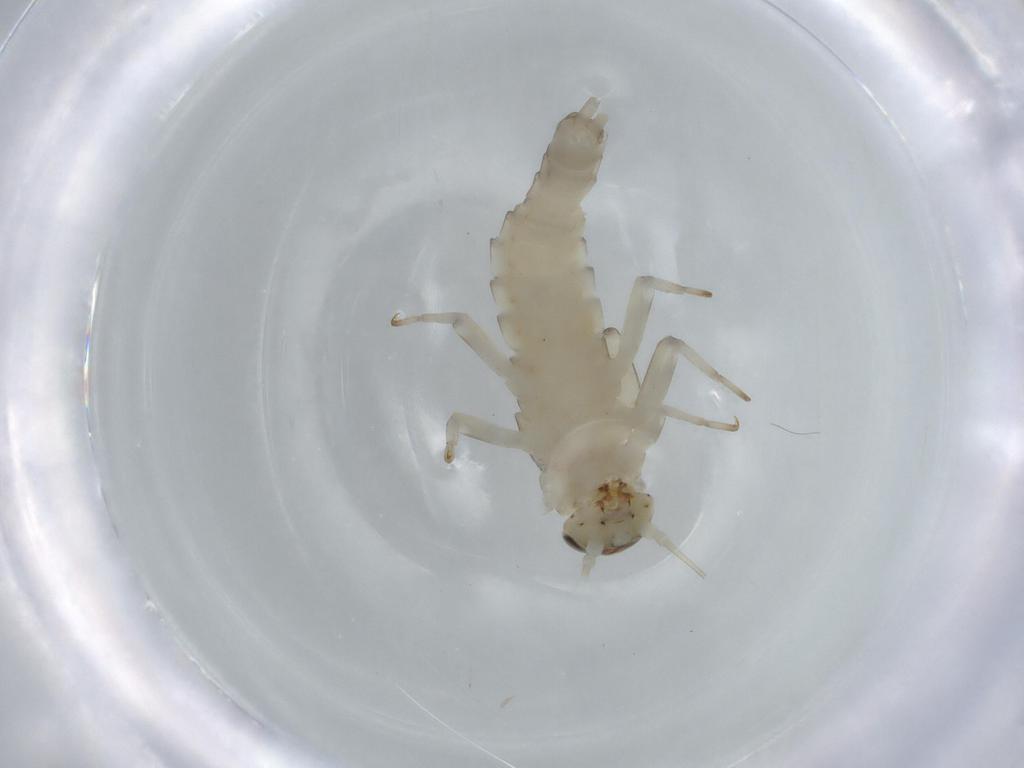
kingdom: Animalia
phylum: Arthropoda
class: Insecta
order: Ephemeroptera
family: Baetidae
